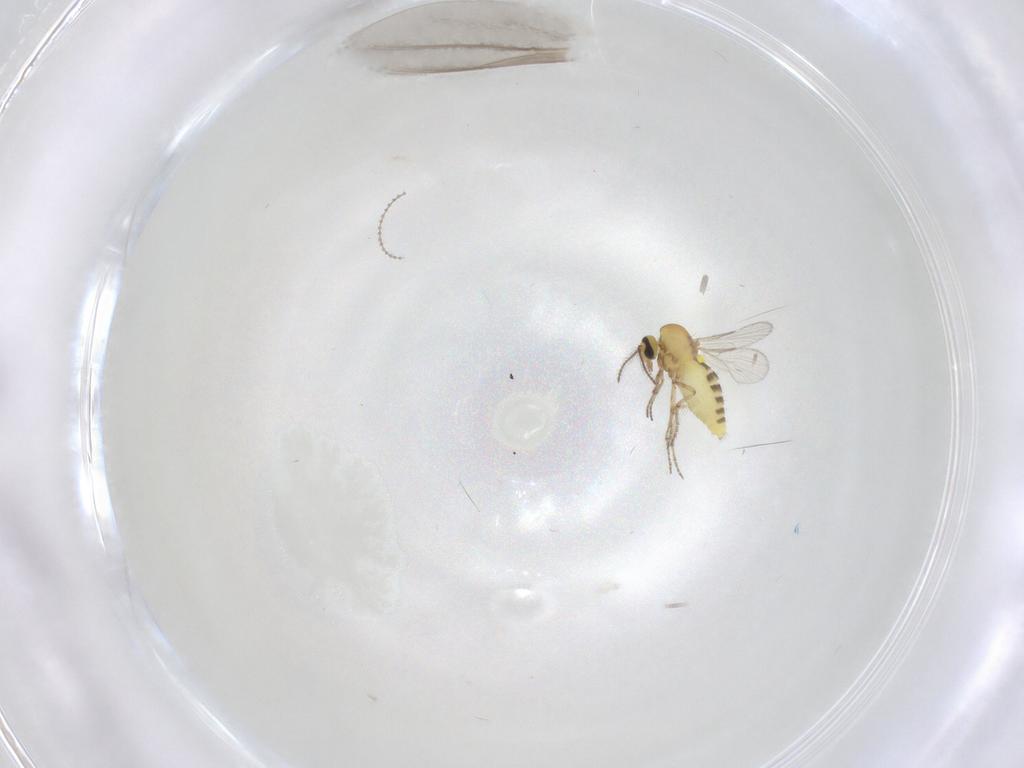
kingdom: Animalia
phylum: Arthropoda
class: Insecta
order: Diptera
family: Ceratopogonidae
